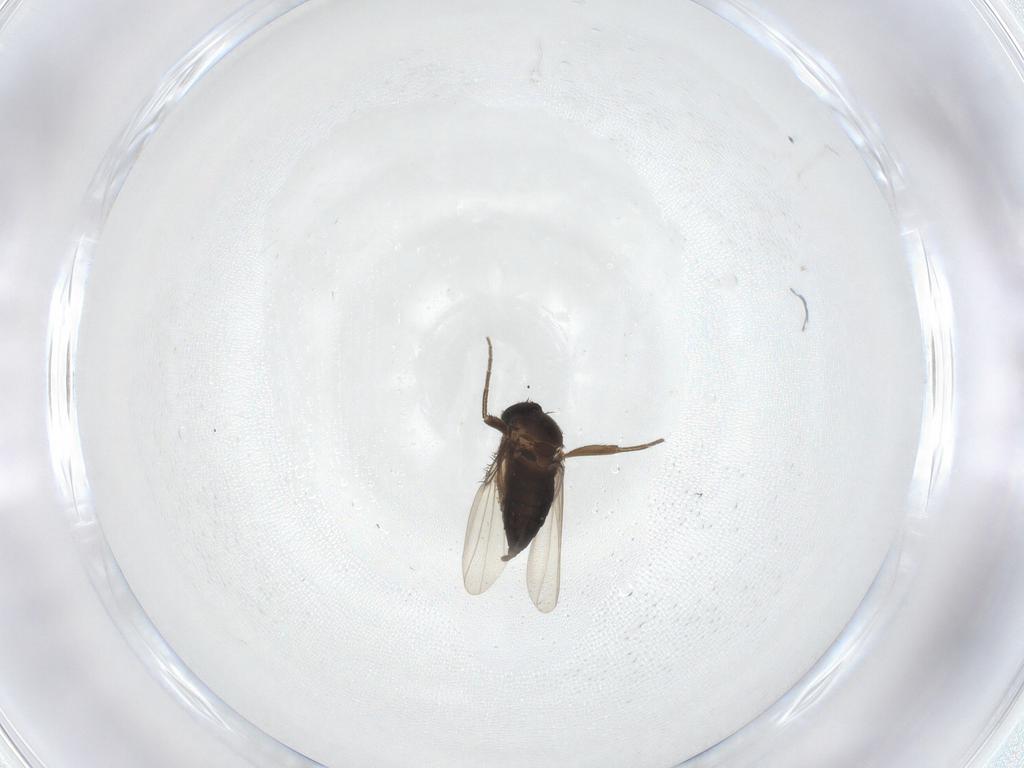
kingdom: Animalia
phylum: Arthropoda
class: Insecta
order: Diptera
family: Phoridae
